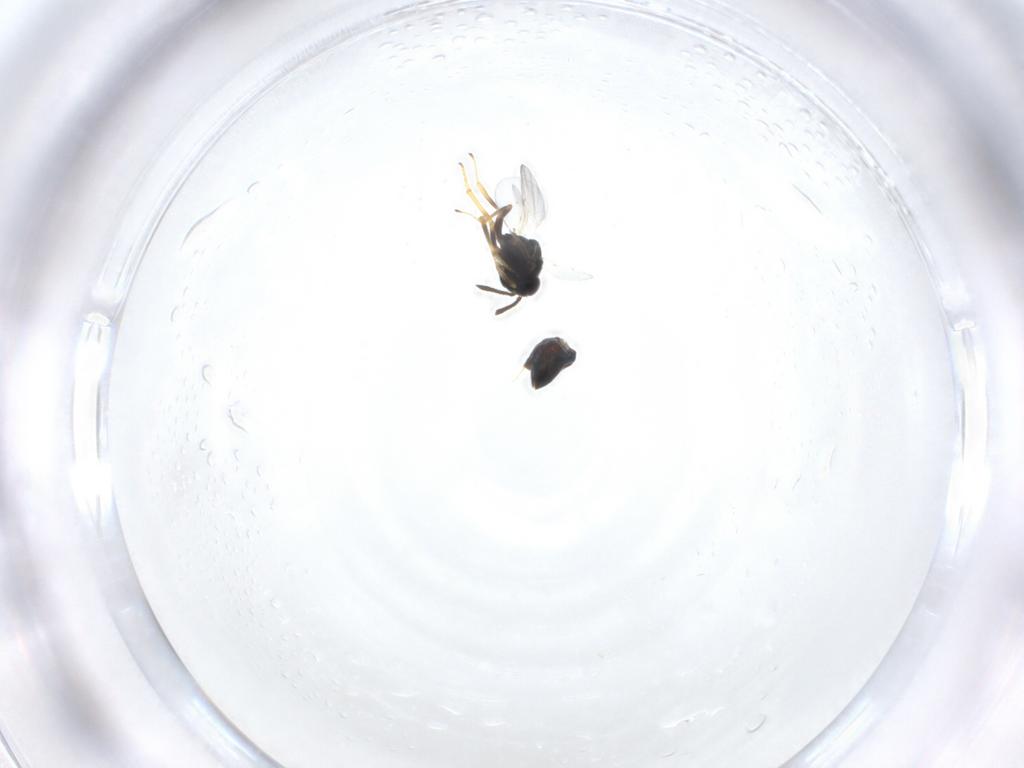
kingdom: Animalia
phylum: Arthropoda
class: Insecta
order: Hymenoptera
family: Encyrtidae
